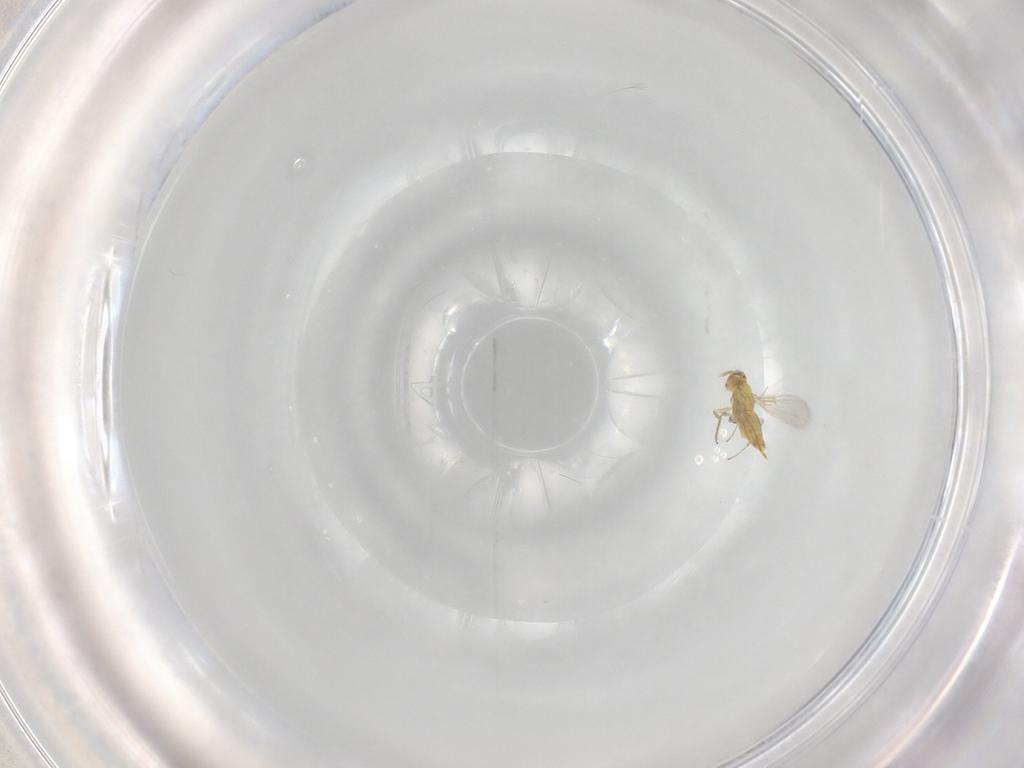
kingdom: Animalia
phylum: Arthropoda
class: Insecta
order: Hymenoptera
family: Aphelinidae
